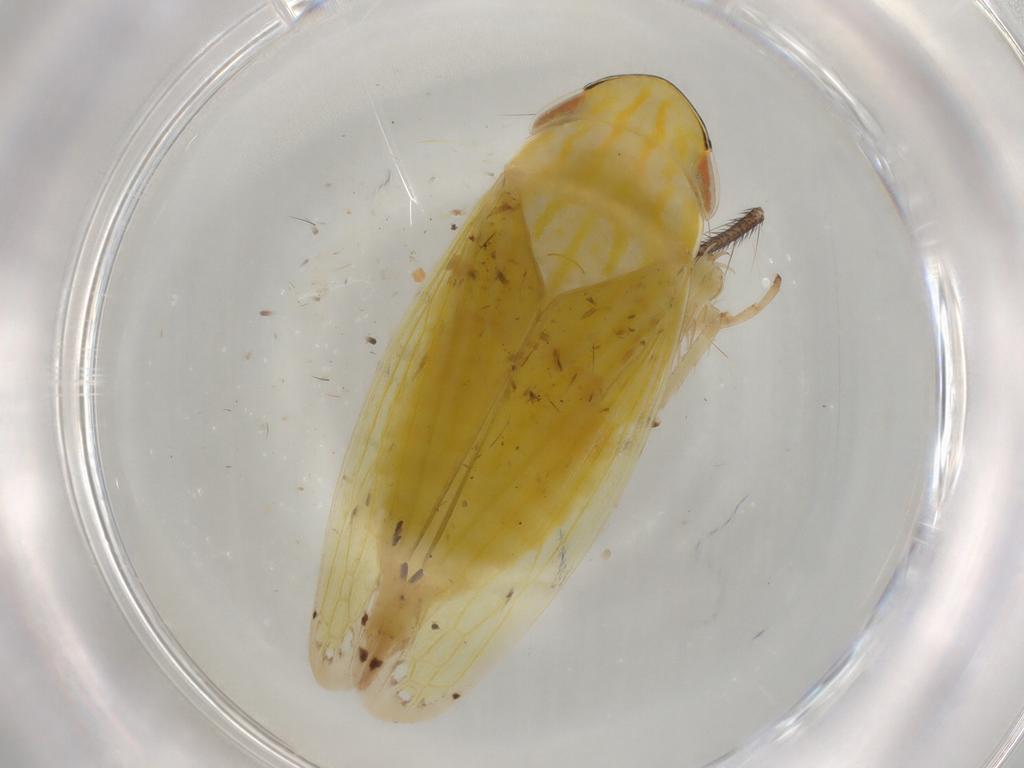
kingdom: Animalia
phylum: Arthropoda
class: Insecta
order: Hemiptera
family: Cicadellidae
